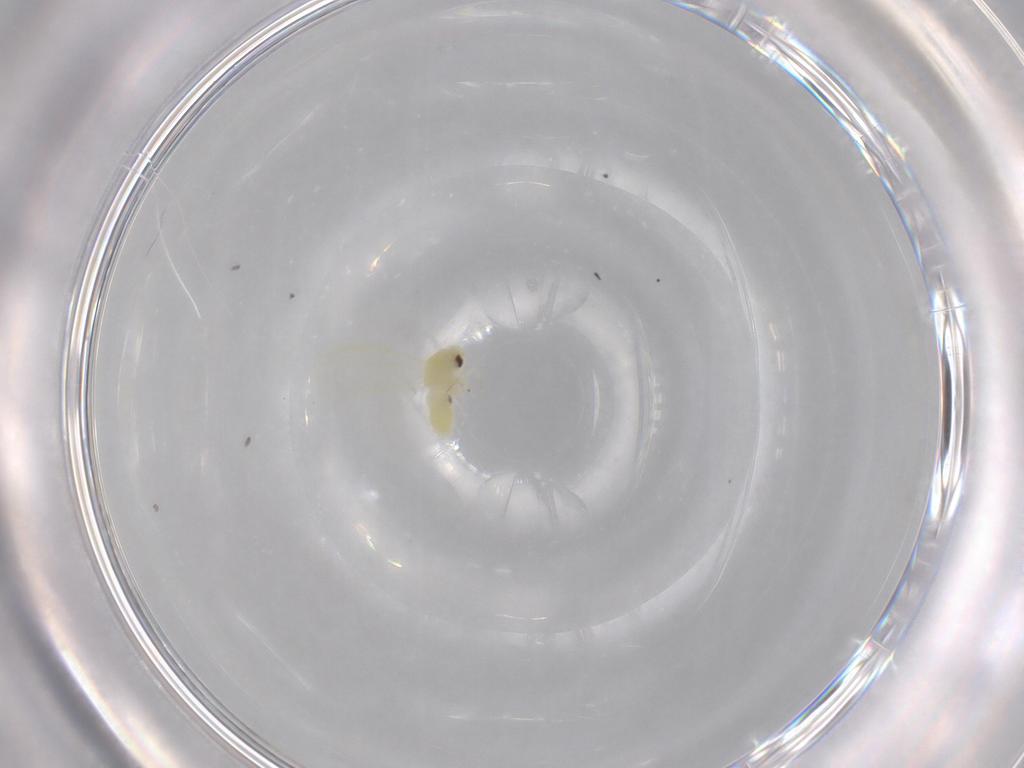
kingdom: Animalia
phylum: Arthropoda
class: Insecta
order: Hemiptera
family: Aleyrodidae
